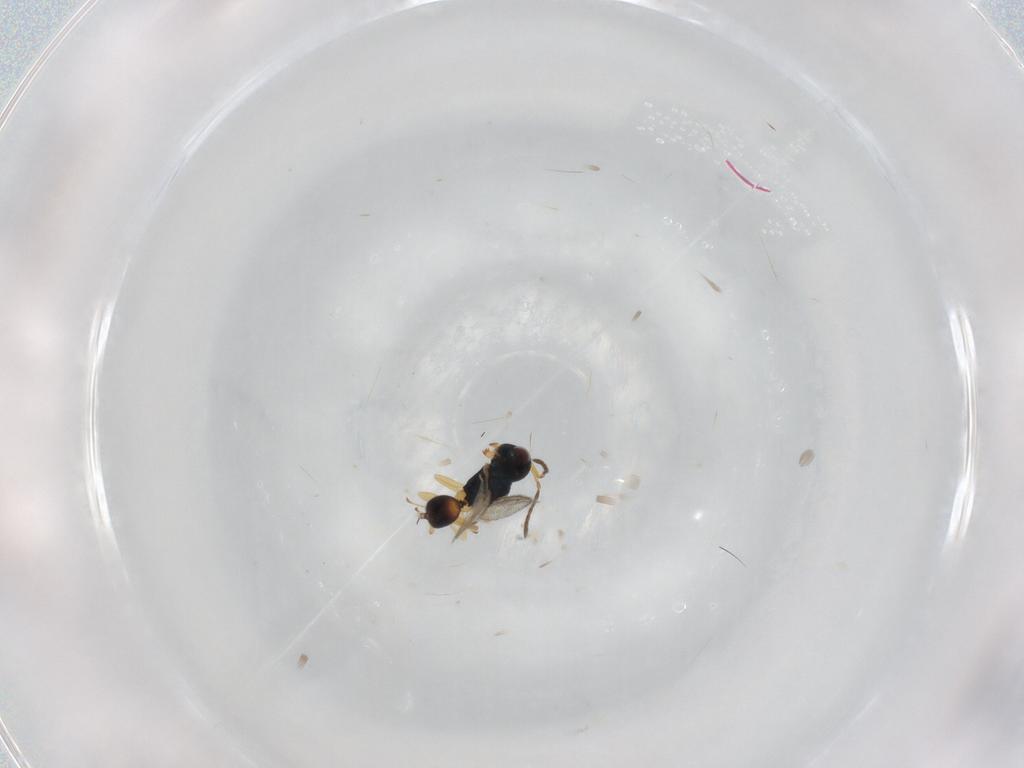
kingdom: Animalia
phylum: Arthropoda
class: Insecta
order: Hymenoptera
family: Pteromalidae
